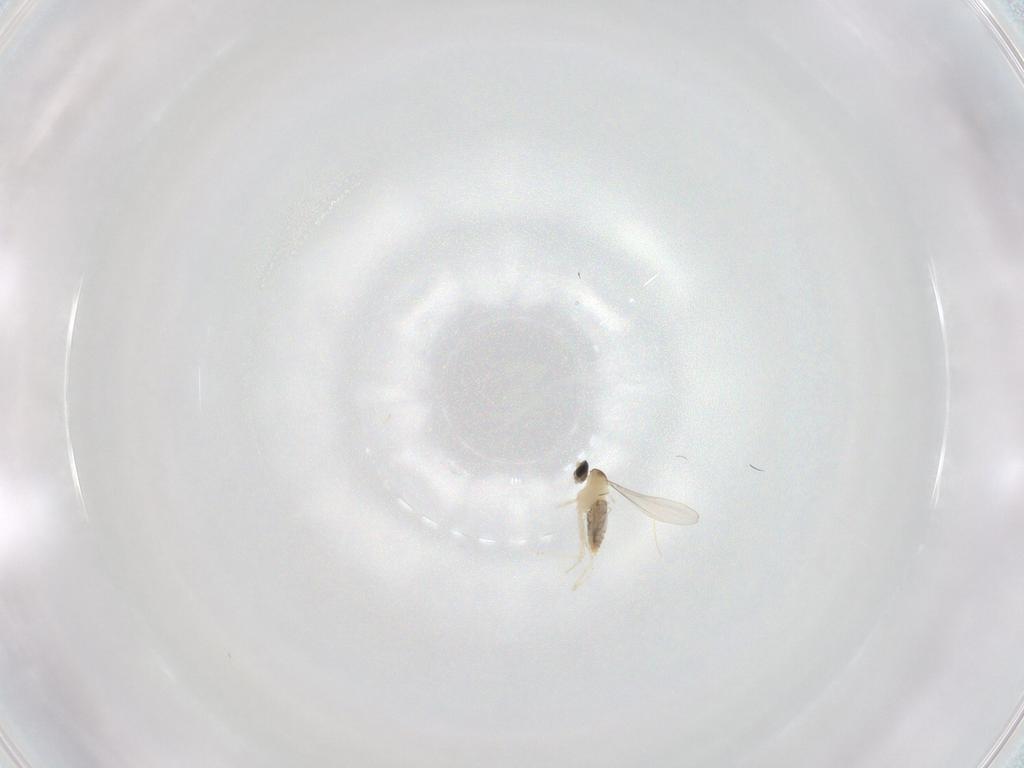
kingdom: Animalia
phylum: Arthropoda
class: Insecta
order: Diptera
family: Cecidomyiidae
